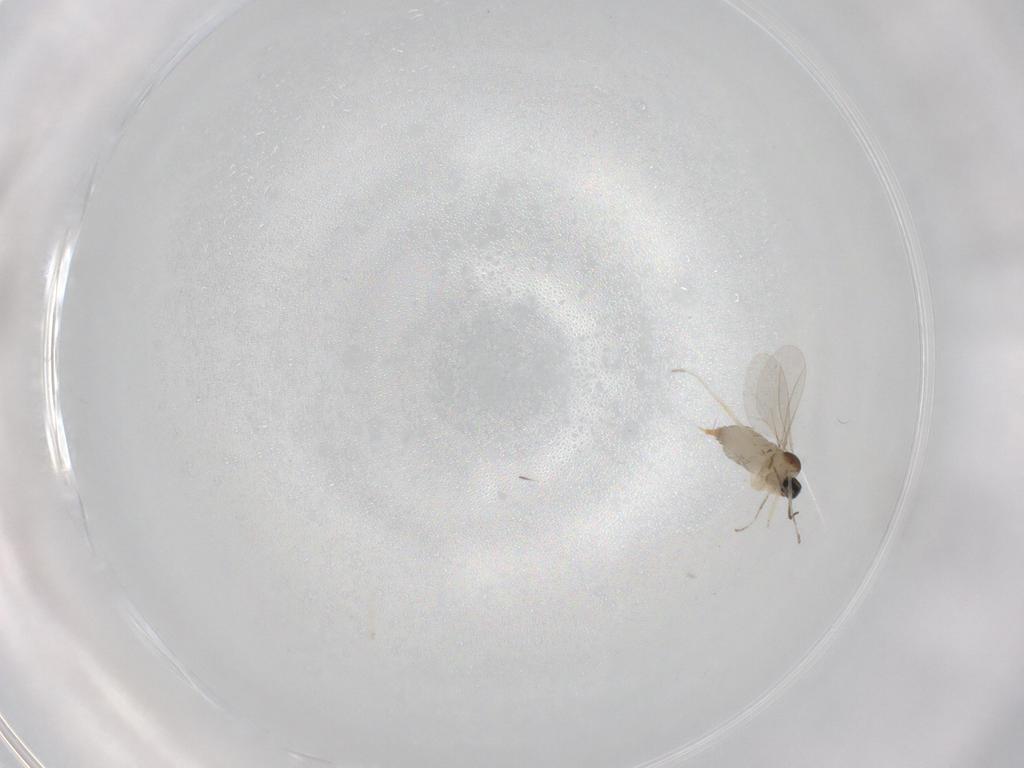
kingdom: Animalia
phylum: Arthropoda
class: Insecta
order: Diptera
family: Cecidomyiidae
